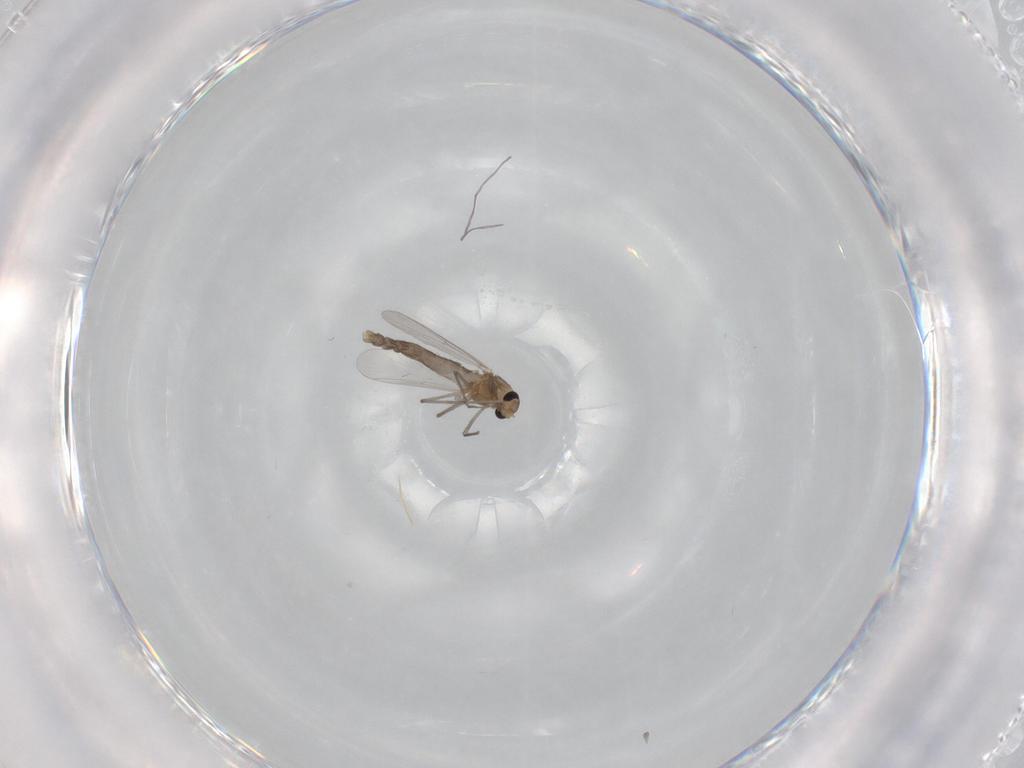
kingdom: Animalia
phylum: Arthropoda
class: Insecta
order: Diptera
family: Chironomidae
